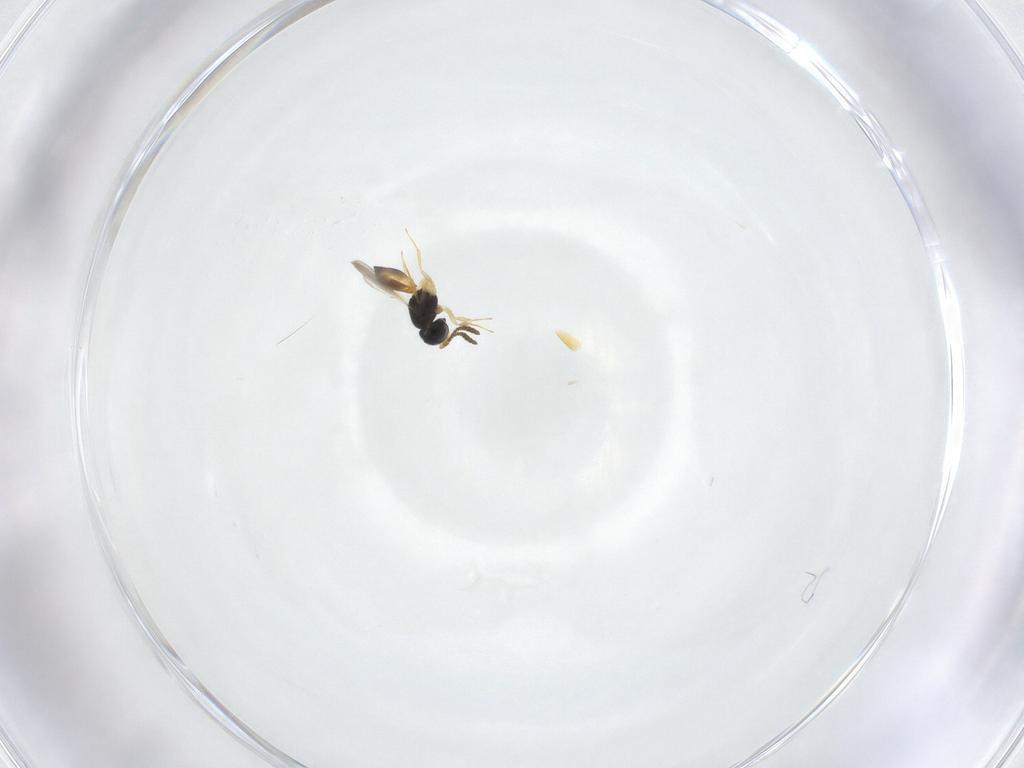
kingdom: Animalia
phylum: Arthropoda
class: Insecta
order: Hymenoptera
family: Scelionidae
